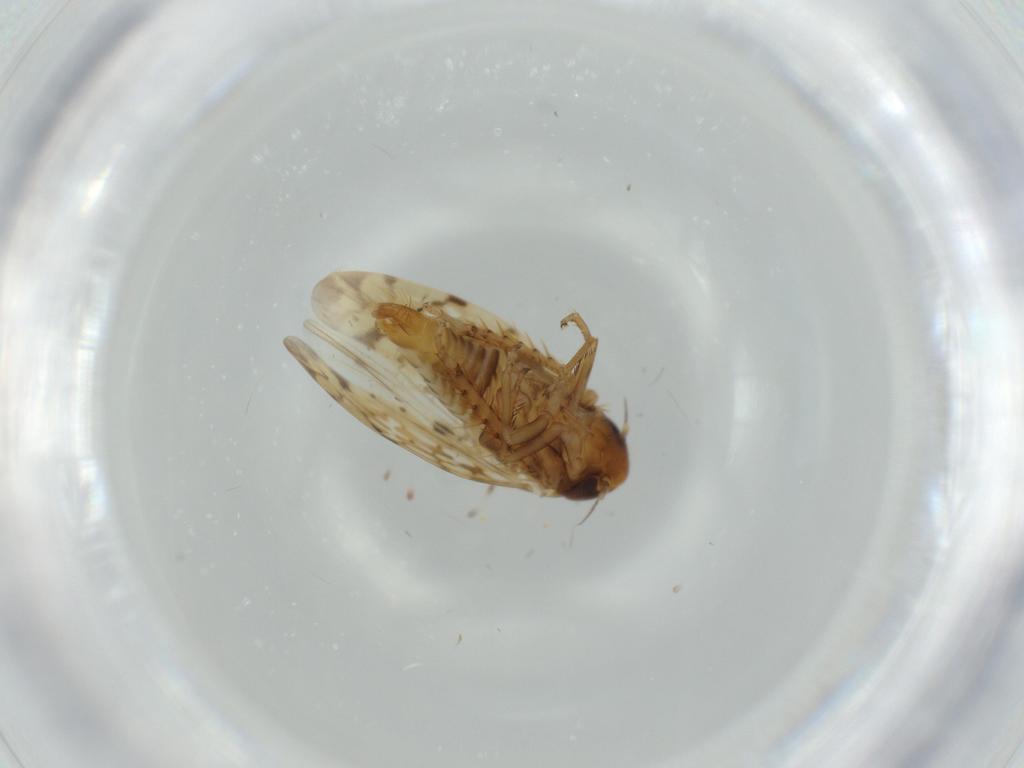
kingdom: Animalia
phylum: Arthropoda
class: Insecta
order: Hemiptera
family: Cicadellidae
